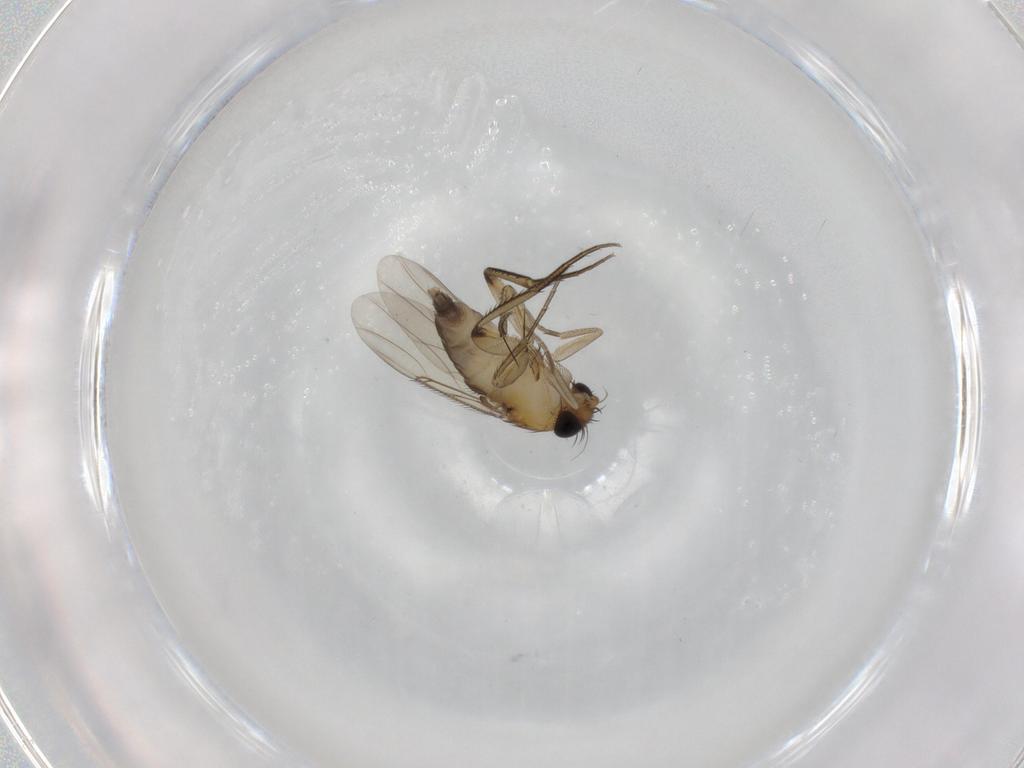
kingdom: Animalia
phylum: Arthropoda
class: Insecta
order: Diptera
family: Phoridae
